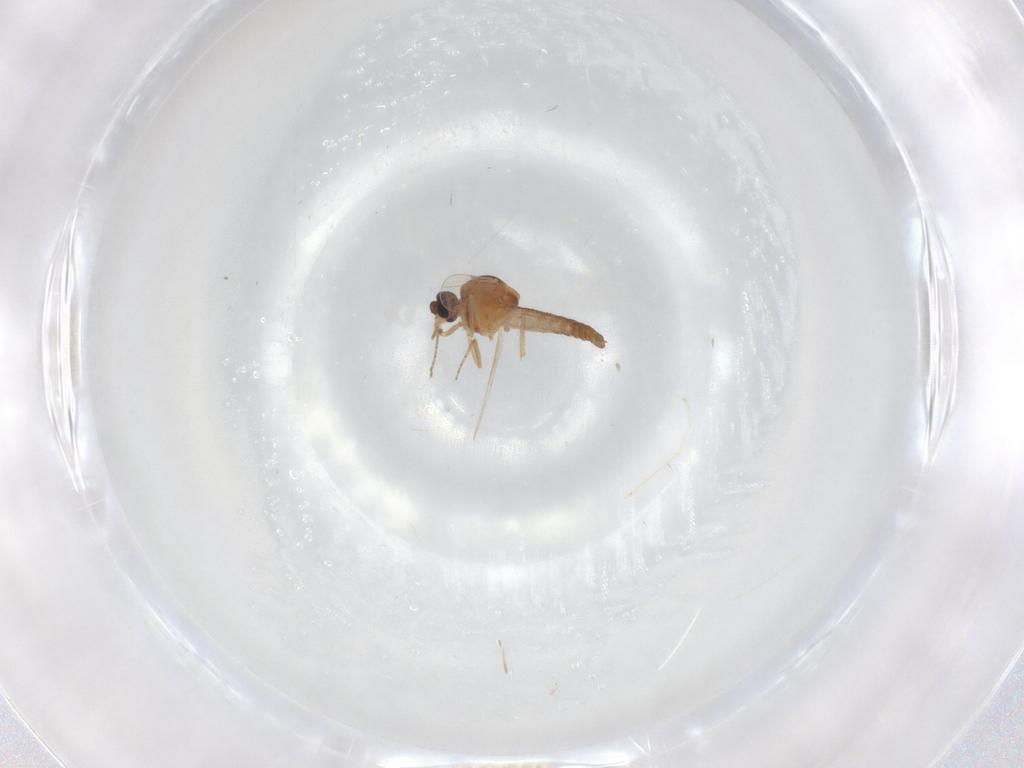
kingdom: Animalia
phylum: Arthropoda
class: Insecta
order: Diptera
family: Ceratopogonidae
